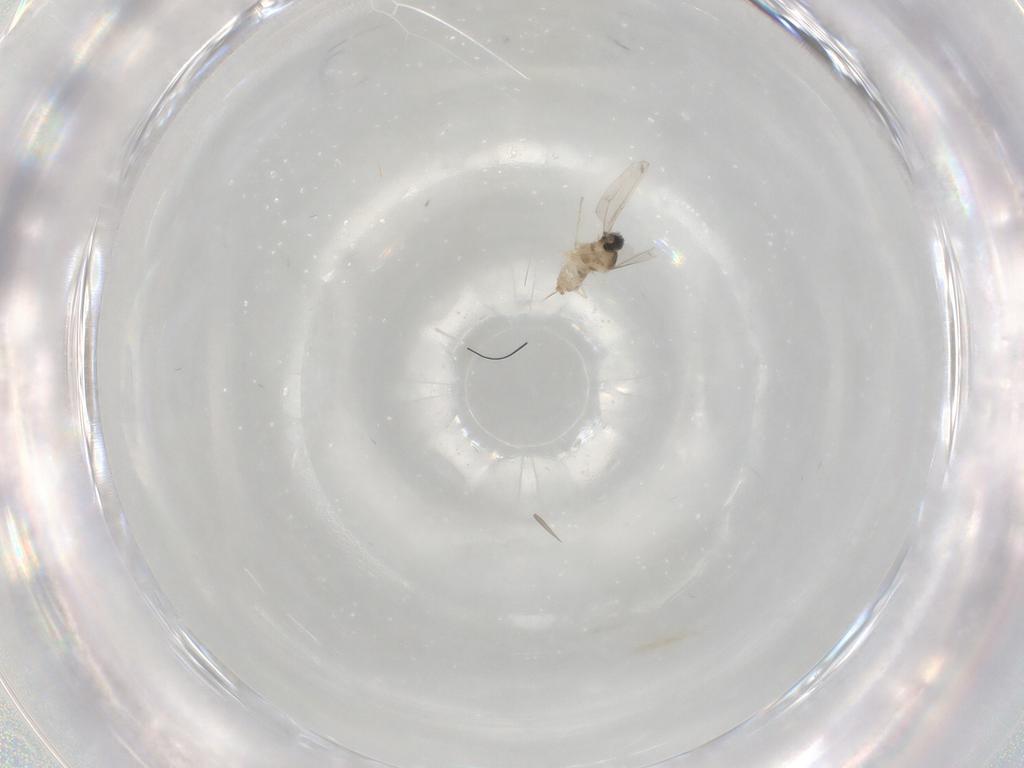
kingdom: Animalia
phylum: Arthropoda
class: Insecta
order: Diptera
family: Cecidomyiidae
